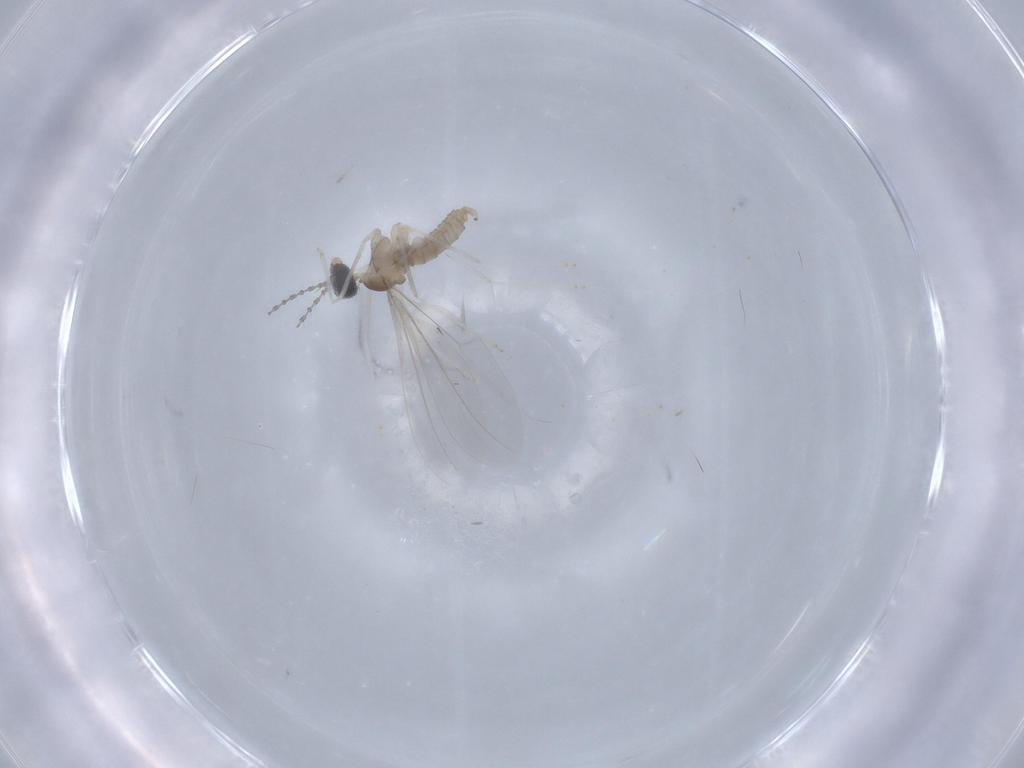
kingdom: Animalia
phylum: Arthropoda
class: Insecta
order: Diptera
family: Cecidomyiidae
